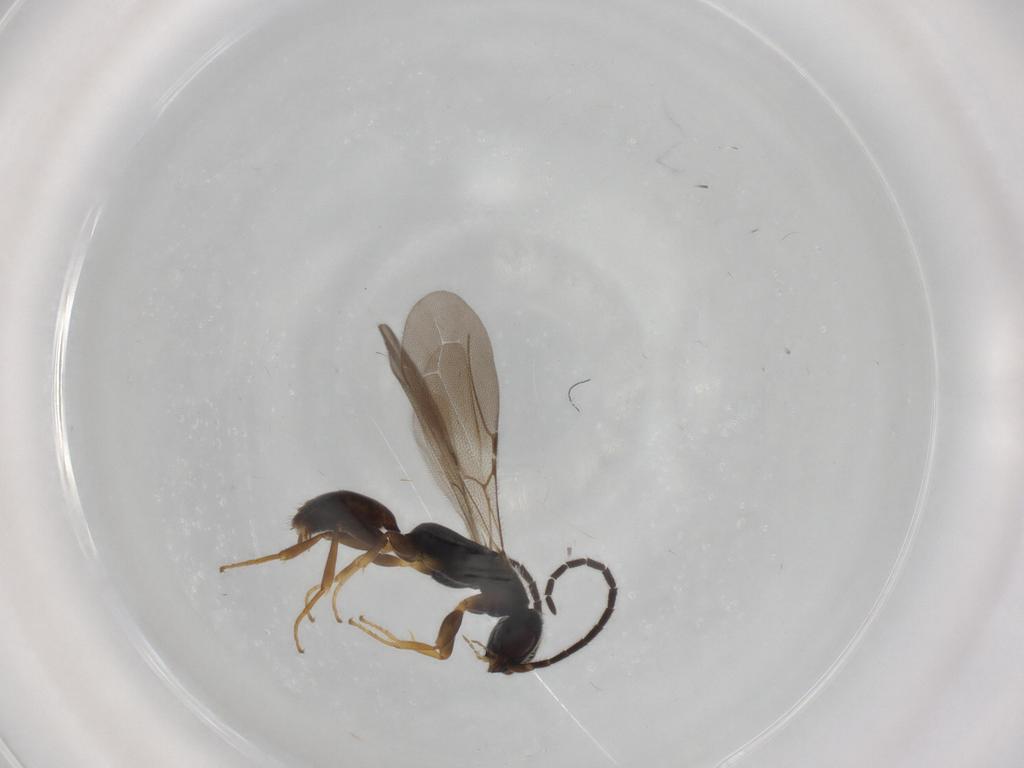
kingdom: Animalia
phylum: Arthropoda
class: Insecta
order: Hymenoptera
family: Bethylidae
